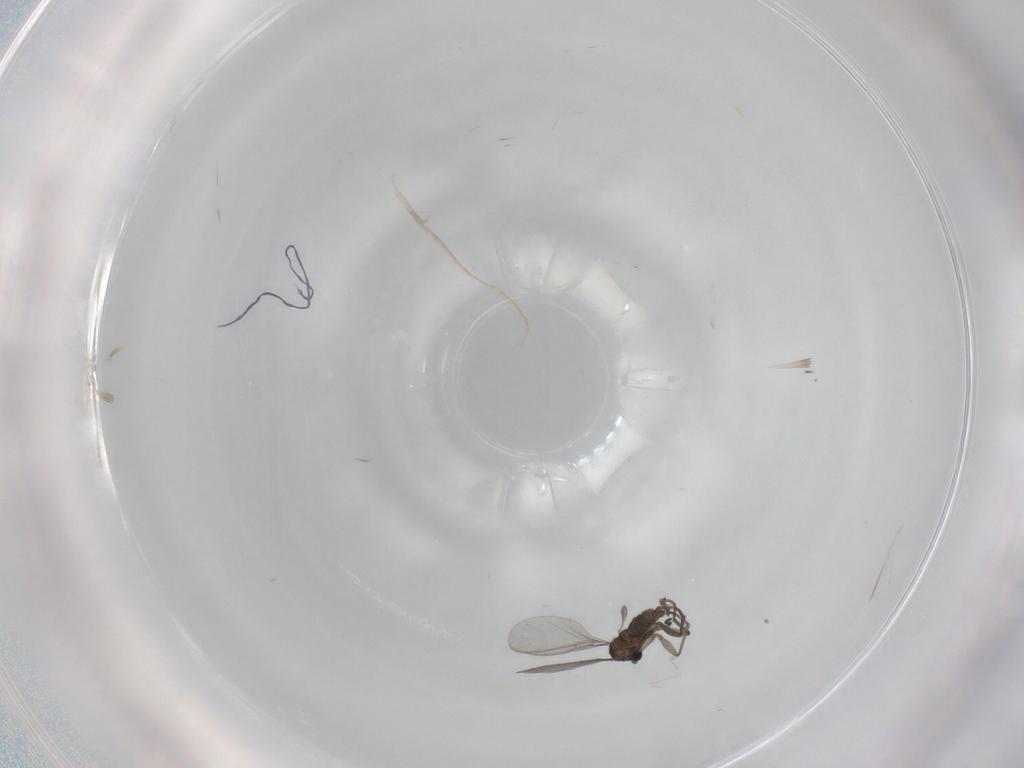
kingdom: Animalia
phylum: Arthropoda
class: Insecta
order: Diptera
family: Sciaridae
